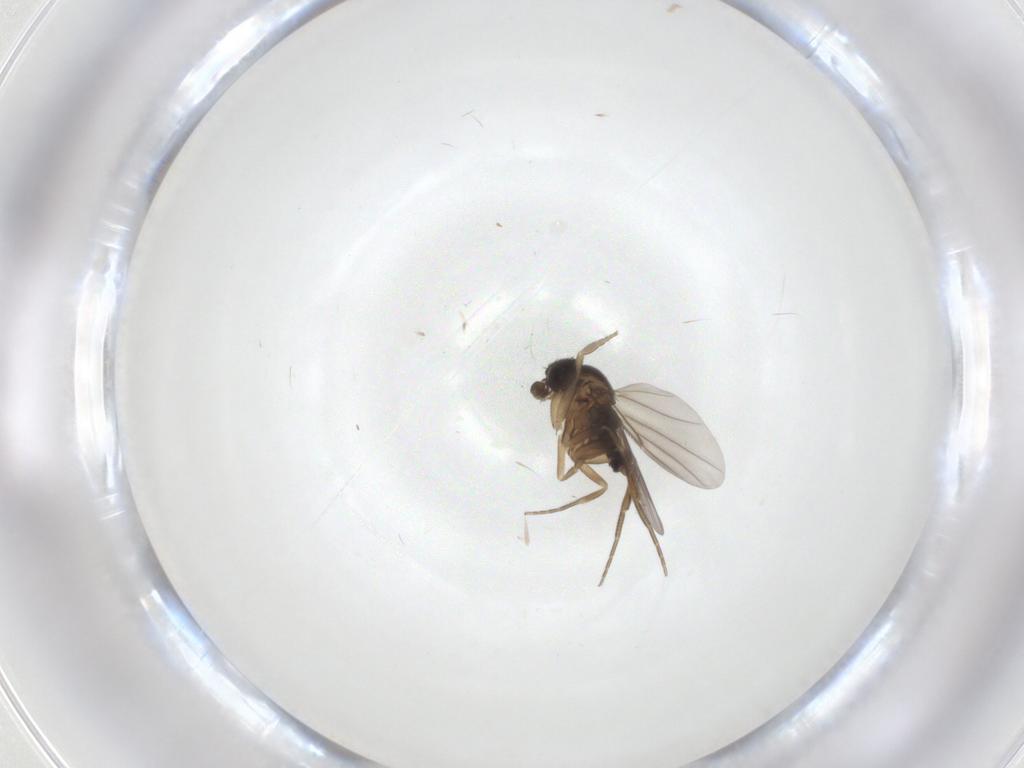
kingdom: Animalia
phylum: Arthropoda
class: Insecta
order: Diptera
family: Phoridae
